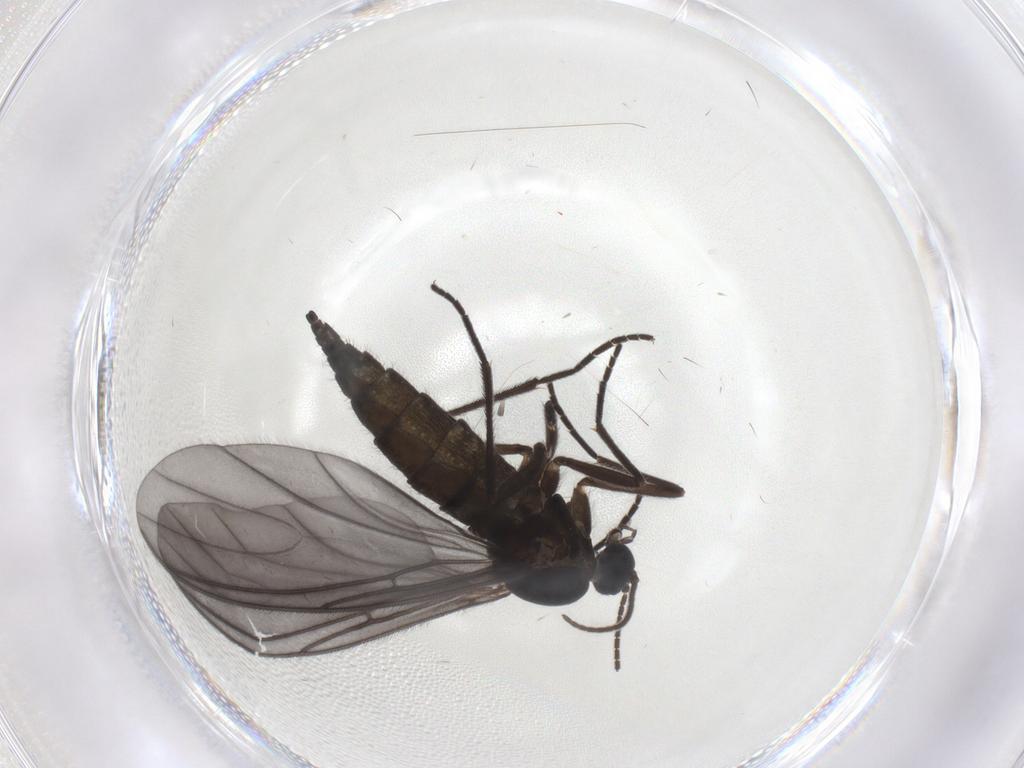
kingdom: Animalia
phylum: Arthropoda
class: Insecta
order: Diptera
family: Sciaridae
